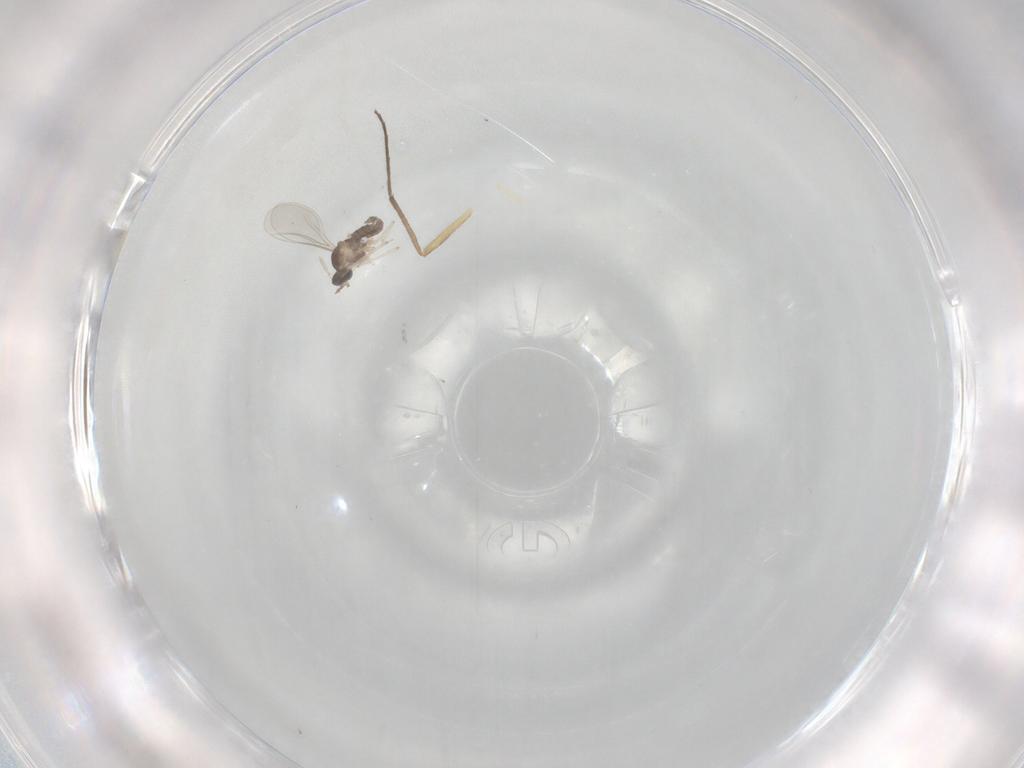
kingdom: Animalia
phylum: Arthropoda
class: Insecta
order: Diptera
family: Cecidomyiidae
